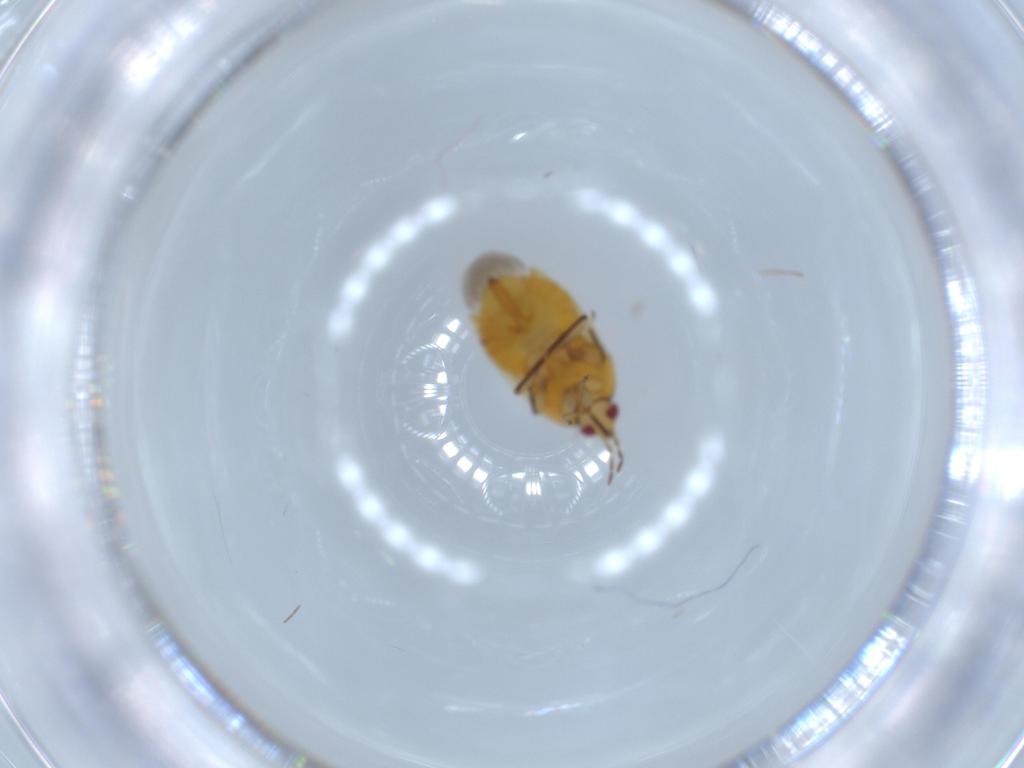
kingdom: Animalia
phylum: Arthropoda
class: Insecta
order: Hemiptera
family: Anthocoridae
